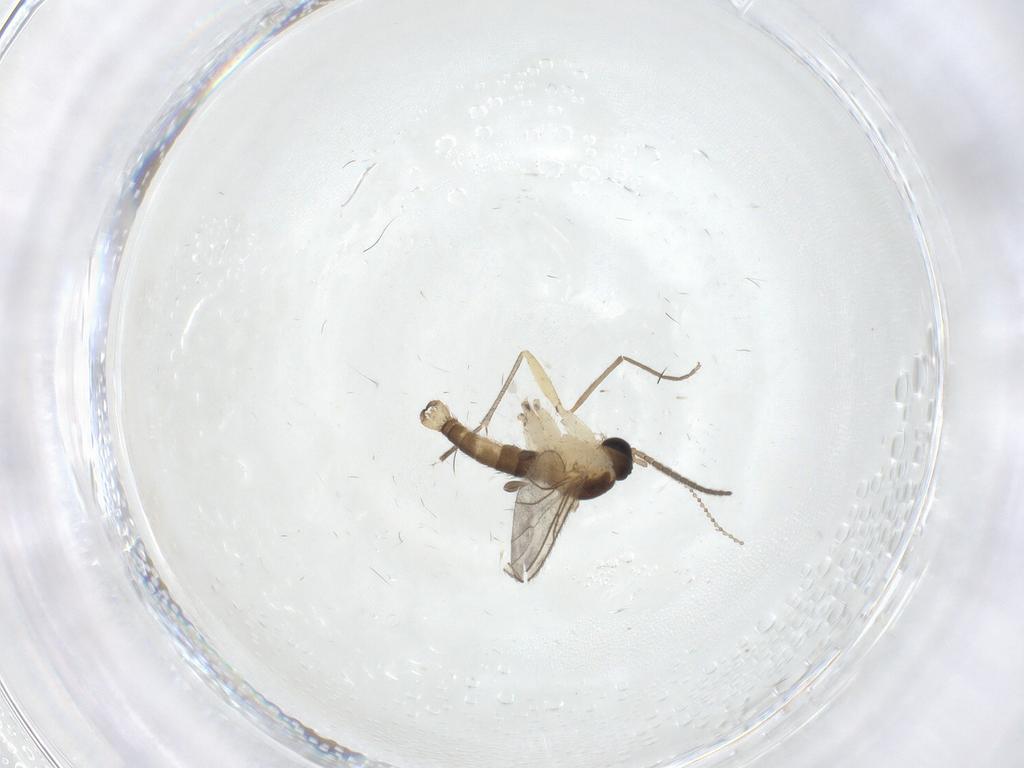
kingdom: Animalia
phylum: Arthropoda
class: Insecta
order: Diptera
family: Sciaridae
